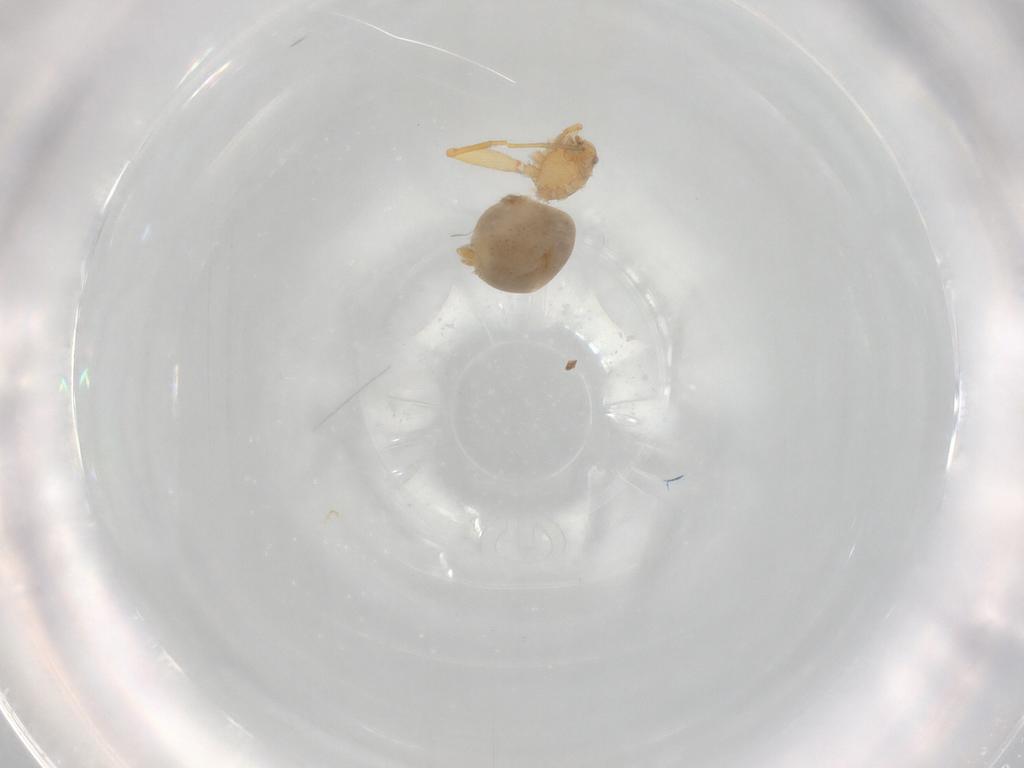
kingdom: Animalia
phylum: Arthropoda
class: Arachnida
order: Araneae
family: Oonopidae
